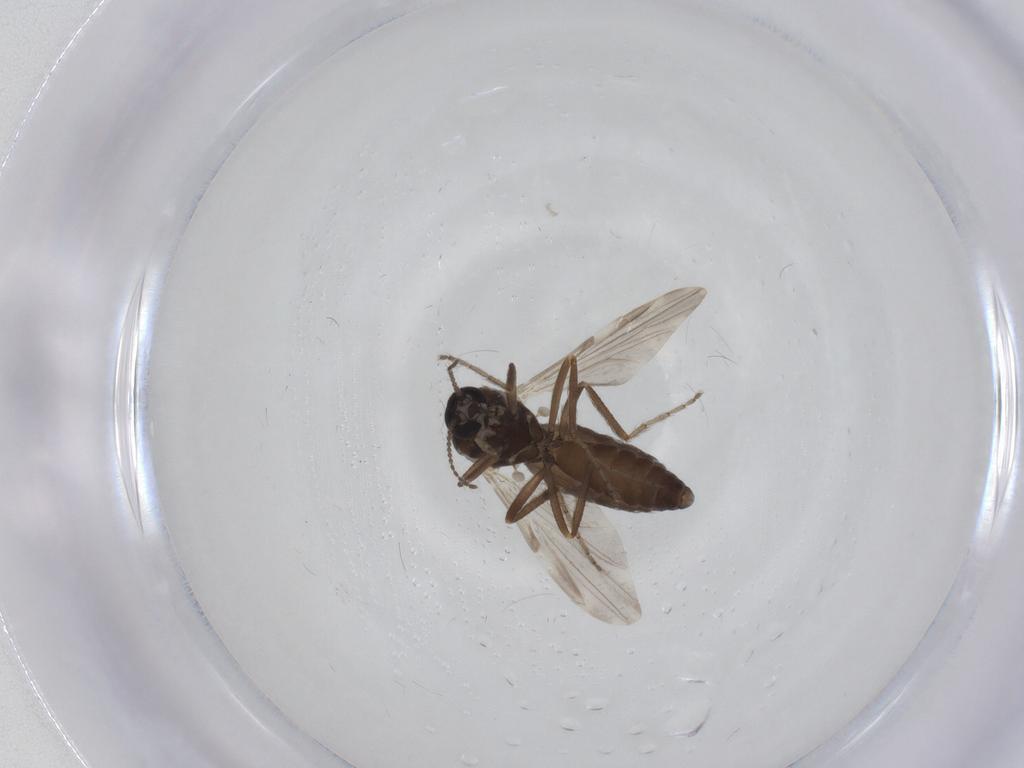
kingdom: Animalia
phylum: Arthropoda
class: Insecta
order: Diptera
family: Ceratopogonidae
